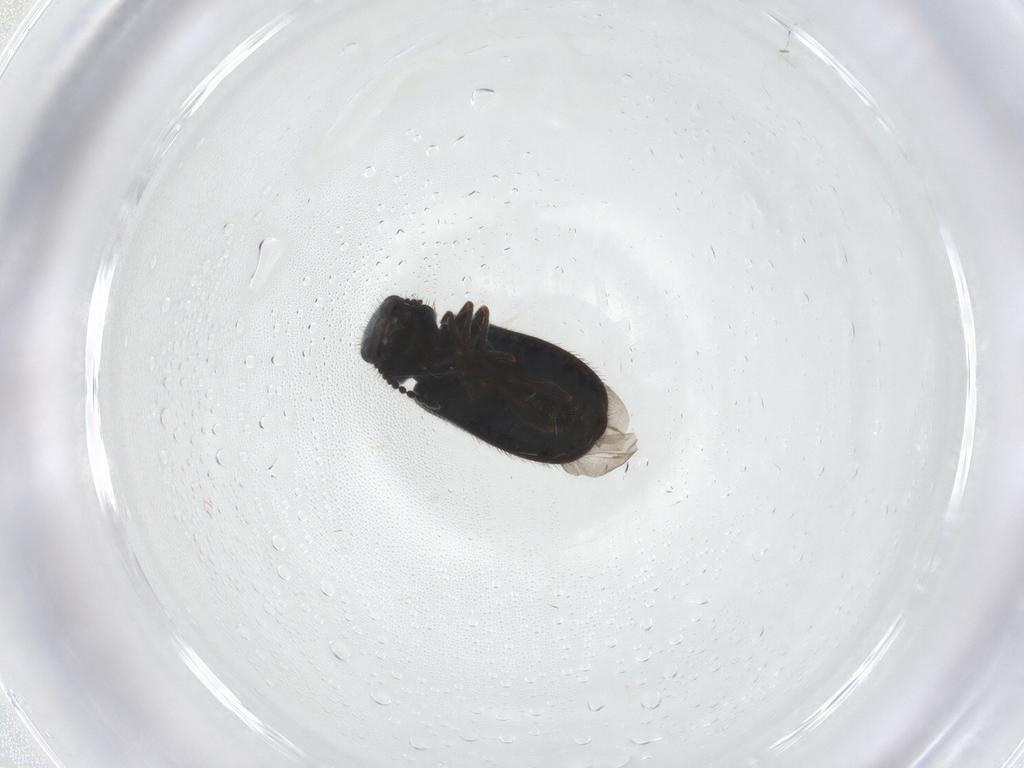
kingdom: Animalia
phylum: Arthropoda
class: Insecta
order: Coleoptera
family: Melyridae
